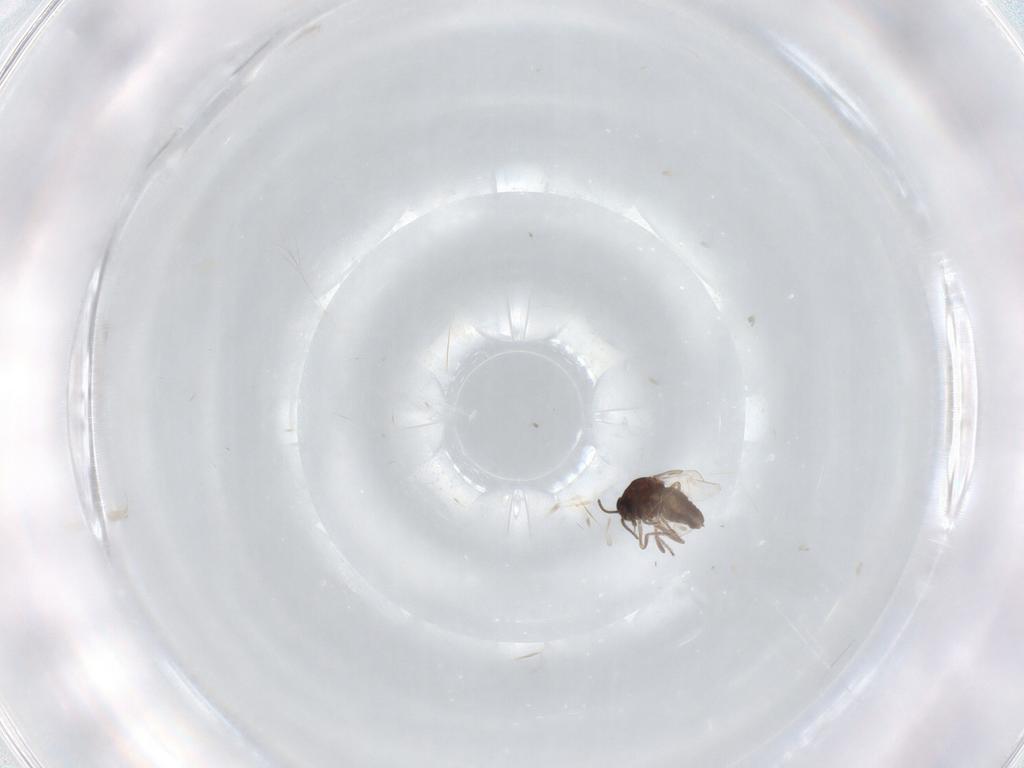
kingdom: Animalia
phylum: Arthropoda
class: Insecta
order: Diptera
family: Ceratopogonidae
